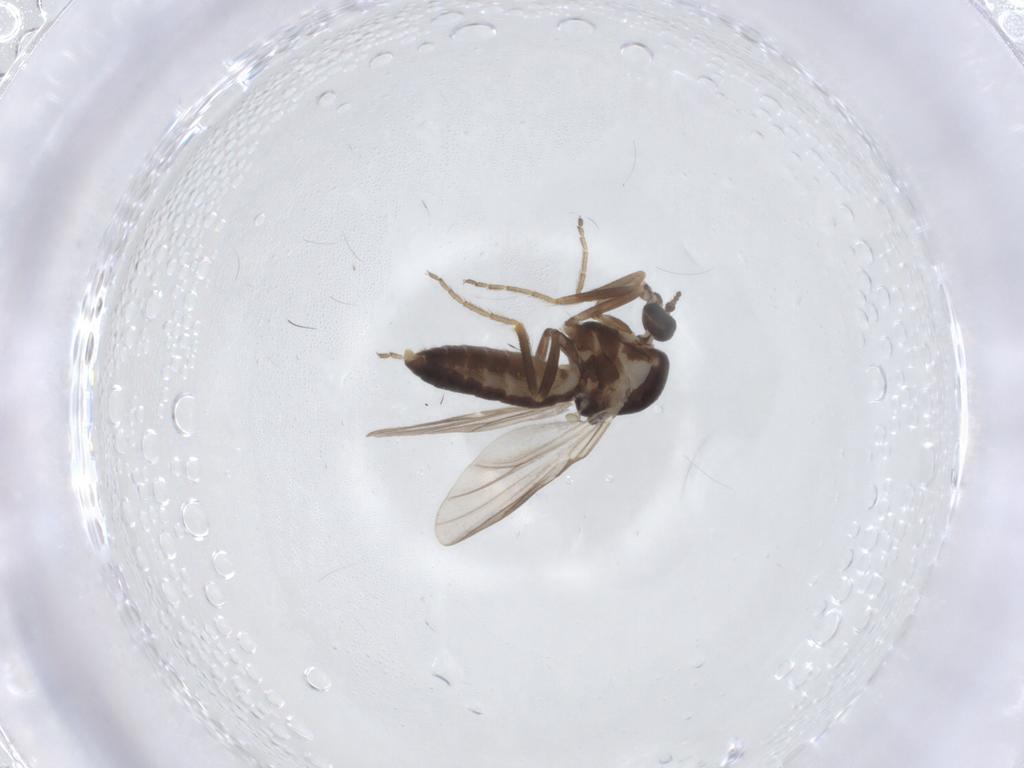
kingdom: Animalia
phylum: Arthropoda
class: Insecta
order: Diptera
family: Ceratopogonidae
